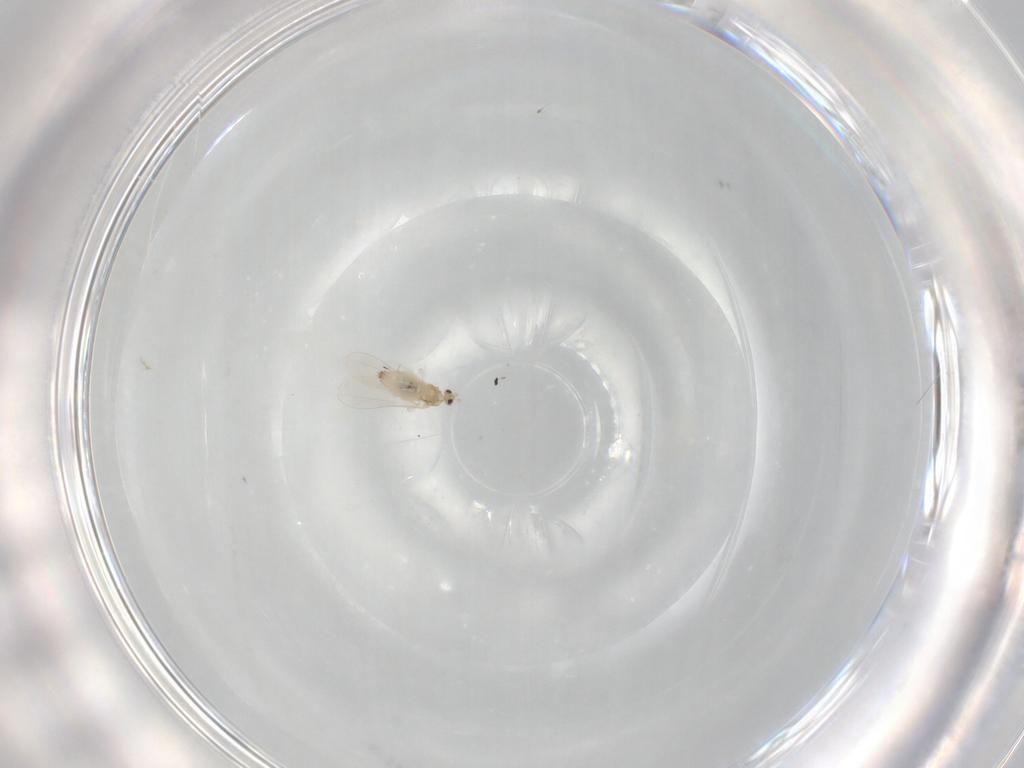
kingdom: Animalia
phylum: Arthropoda
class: Insecta
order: Diptera
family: Cecidomyiidae
